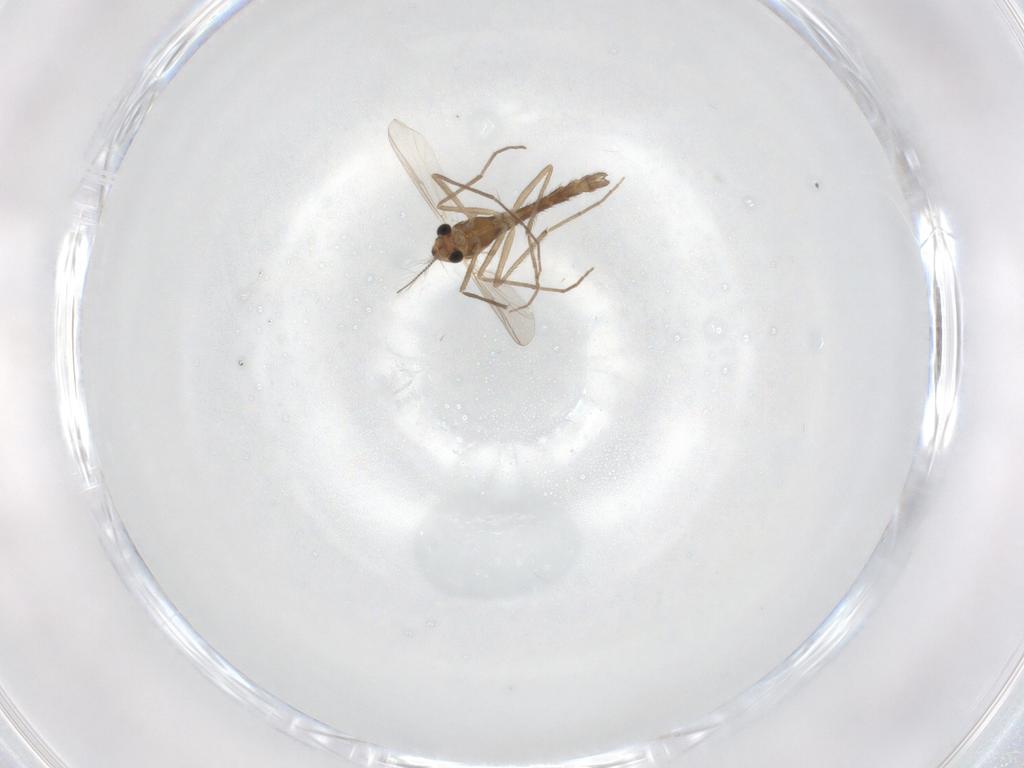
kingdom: Animalia
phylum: Arthropoda
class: Insecta
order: Diptera
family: Chironomidae
